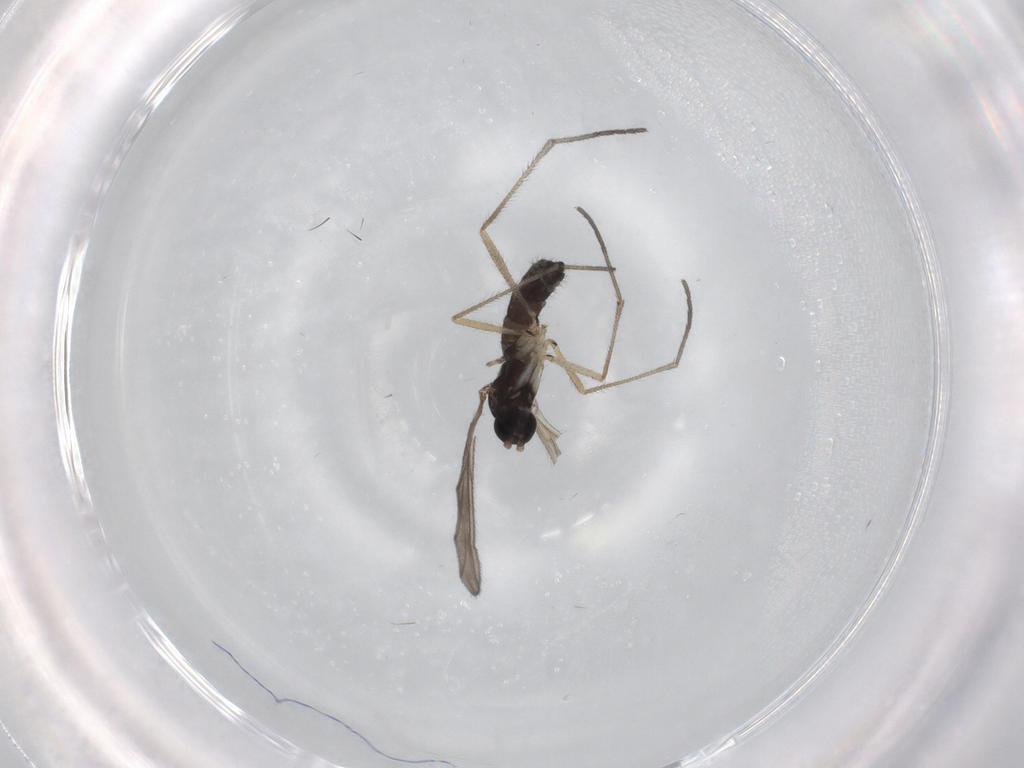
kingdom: Animalia
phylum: Arthropoda
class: Insecta
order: Diptera
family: Sciaridae
